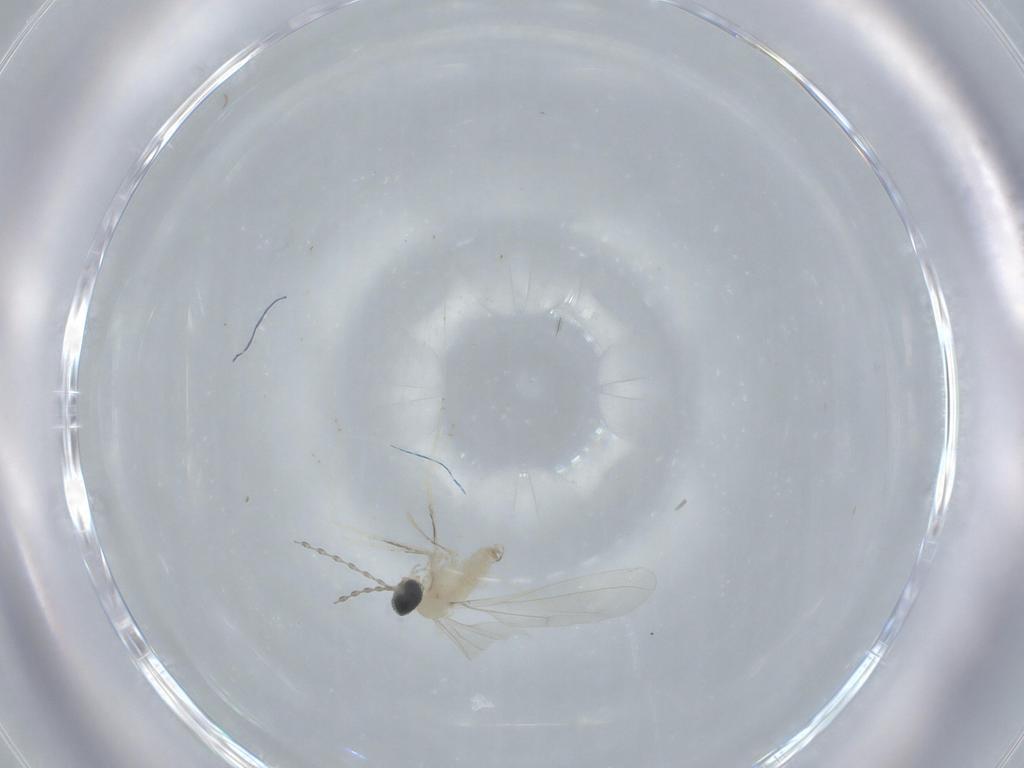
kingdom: Animalia
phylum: Arthropoda
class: Insecta
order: Diptera
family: Cecidomyiidae
